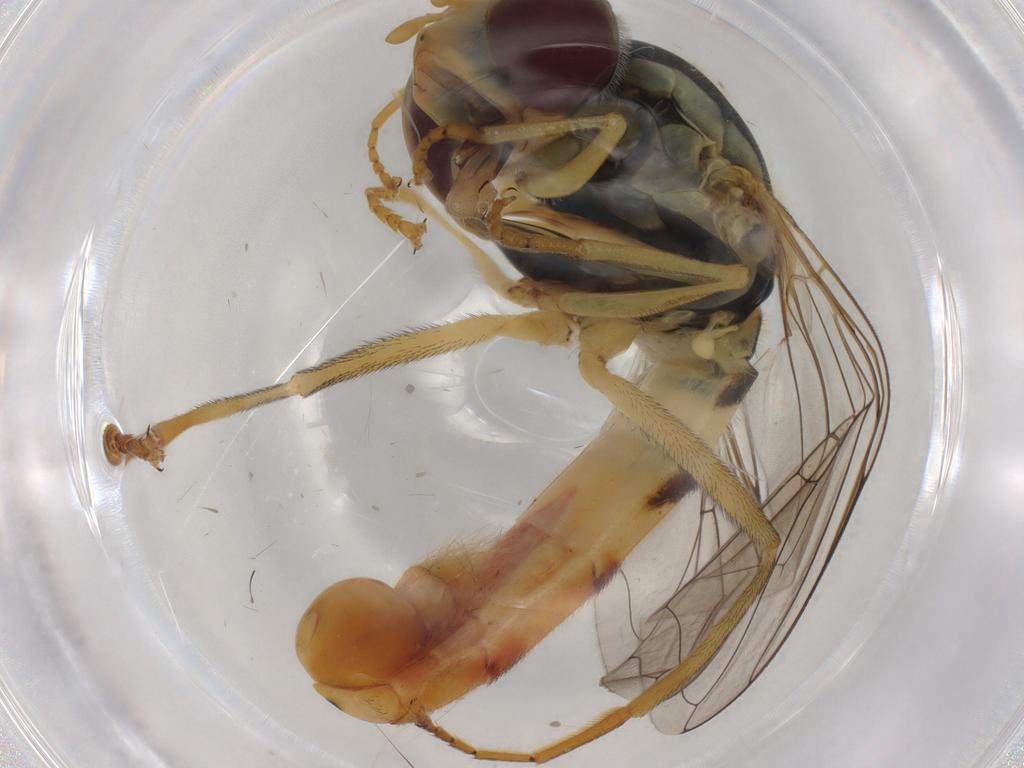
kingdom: Animalia
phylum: Arthropoda
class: Insecta
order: Diptera
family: Syrphidae
